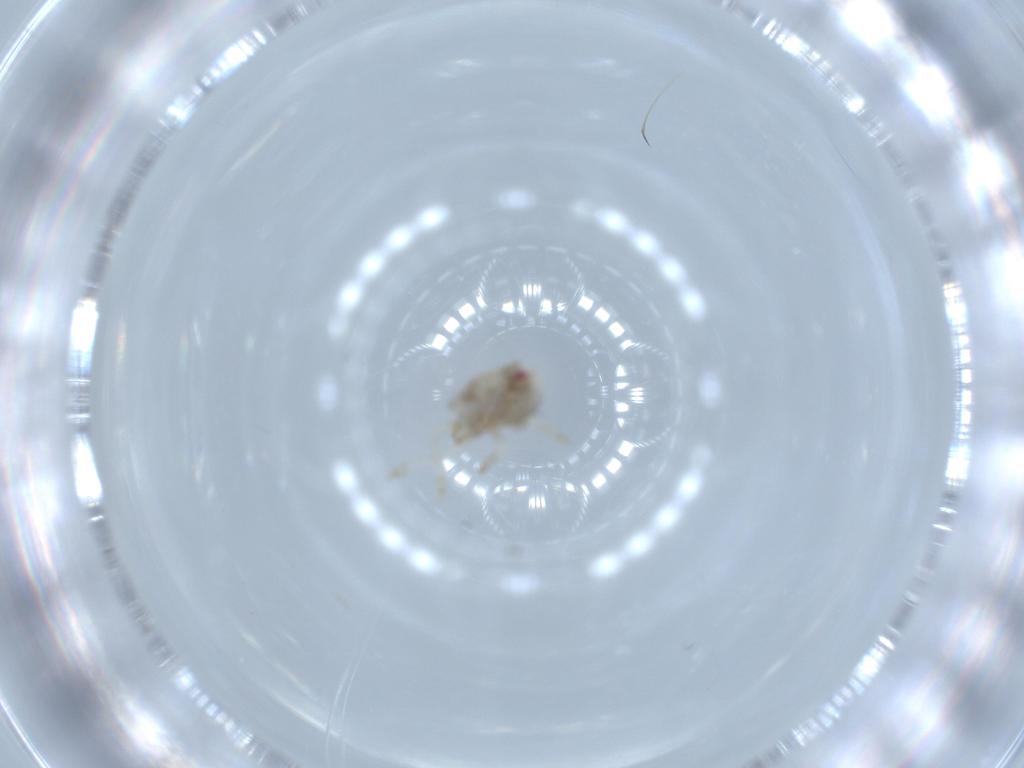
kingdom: Animalia
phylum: Arthropoda
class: Insecta
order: Hemiptera
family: Acanaloniidae
